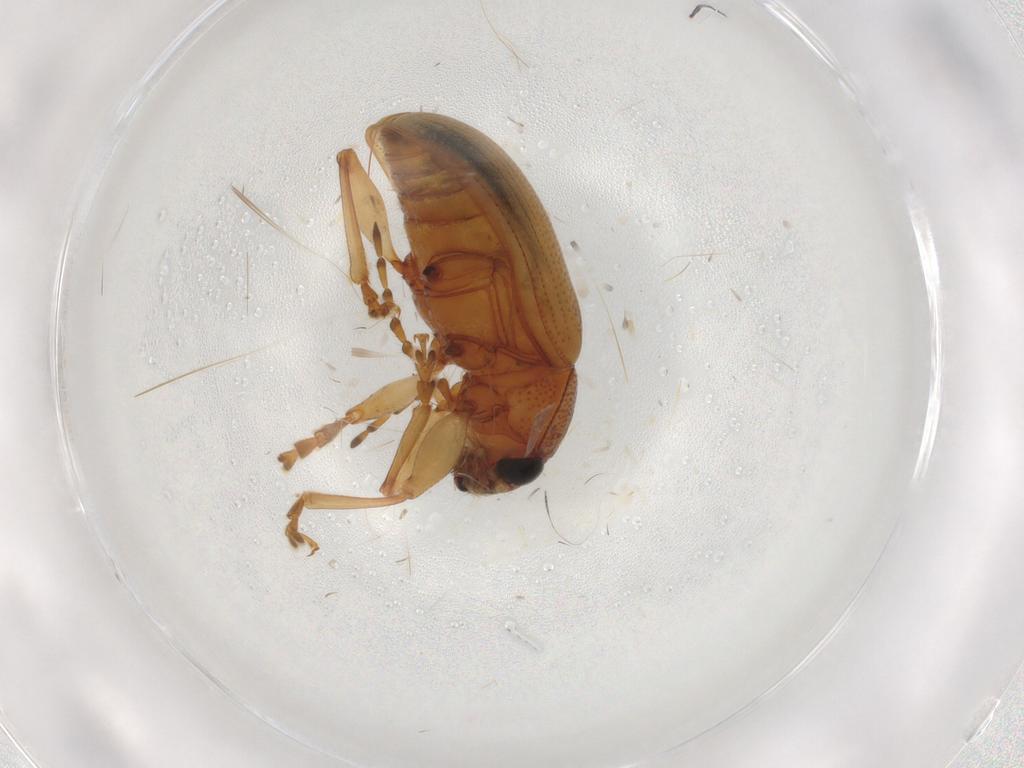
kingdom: Animalia
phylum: Arthropoda
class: Insecta
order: Coleoptera
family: Chrysomelidae
